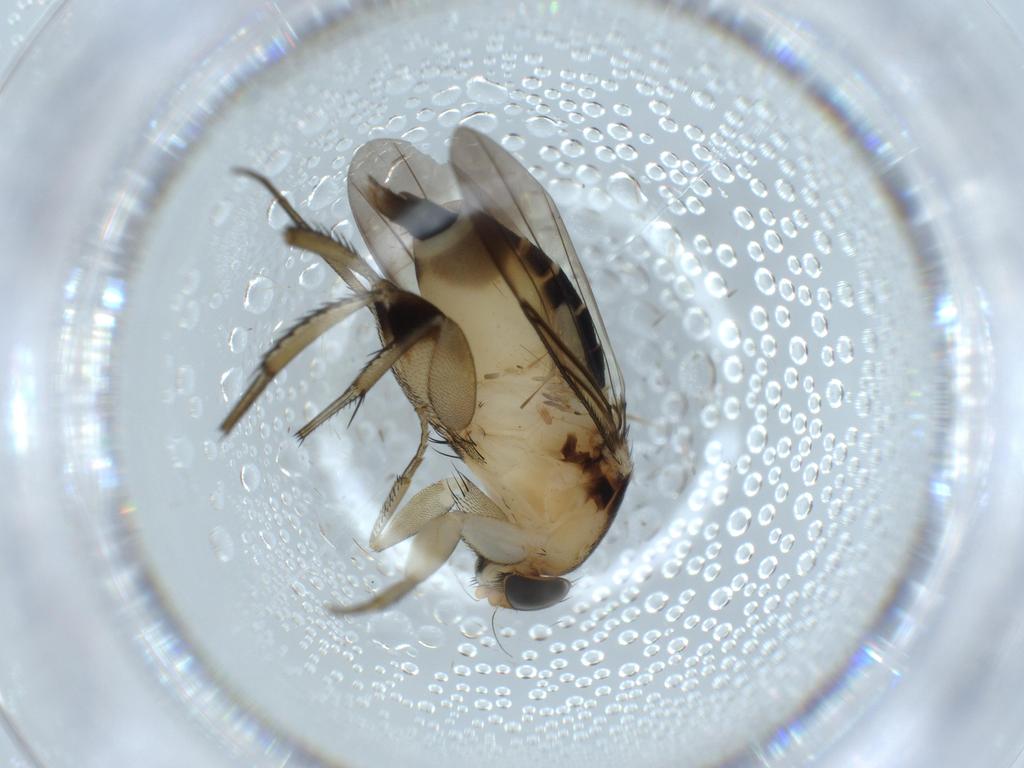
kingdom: Animalia
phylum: Arthropoda
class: Insecta
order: Diptera
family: Phoridae
